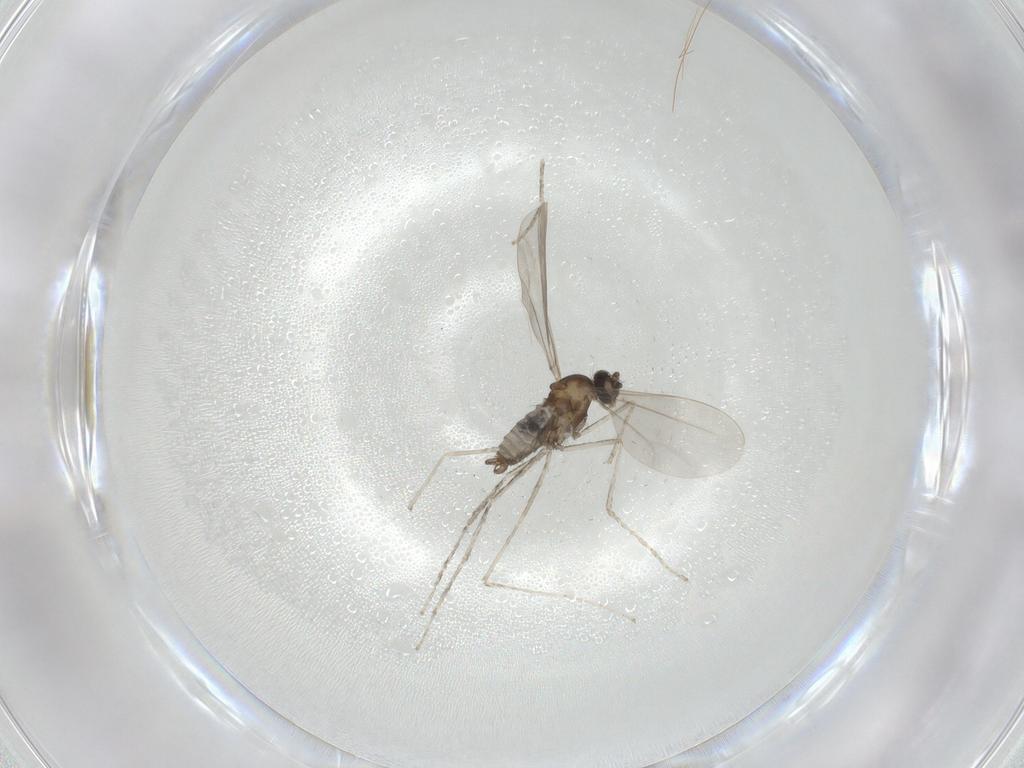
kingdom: Animalia
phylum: Arthropoda
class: Insecta
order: Diptera
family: Cecidomyiidae
